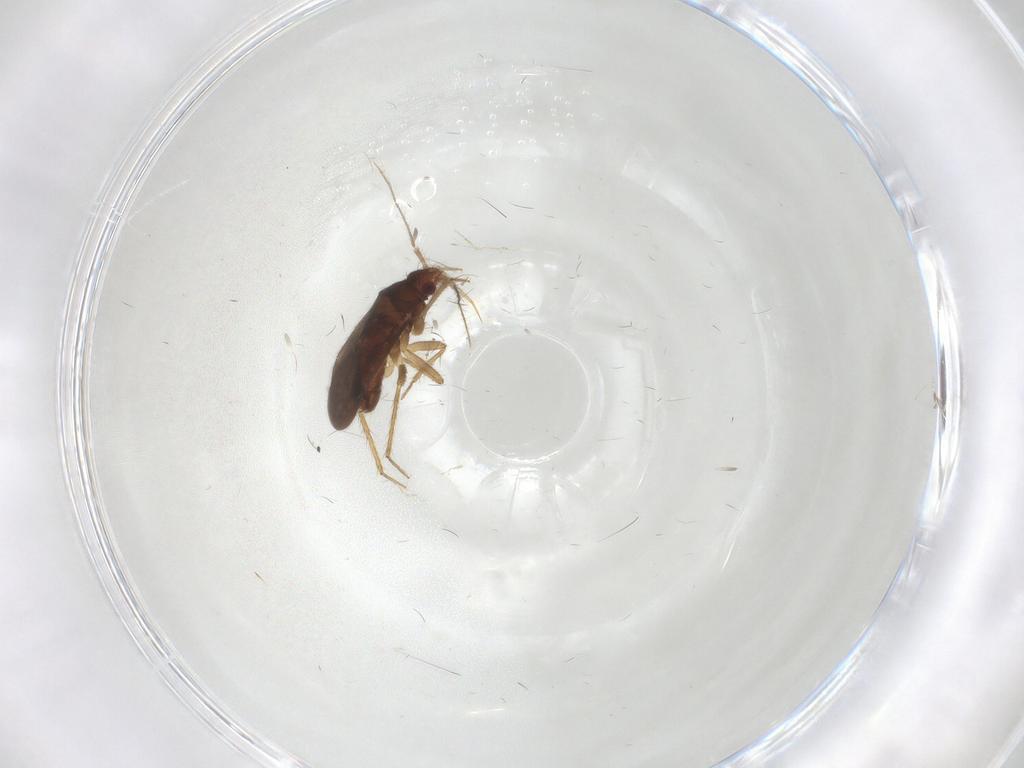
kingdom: Animalia
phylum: Arthropoda
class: Insecta
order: Hemiptera
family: Ceratocombidae
